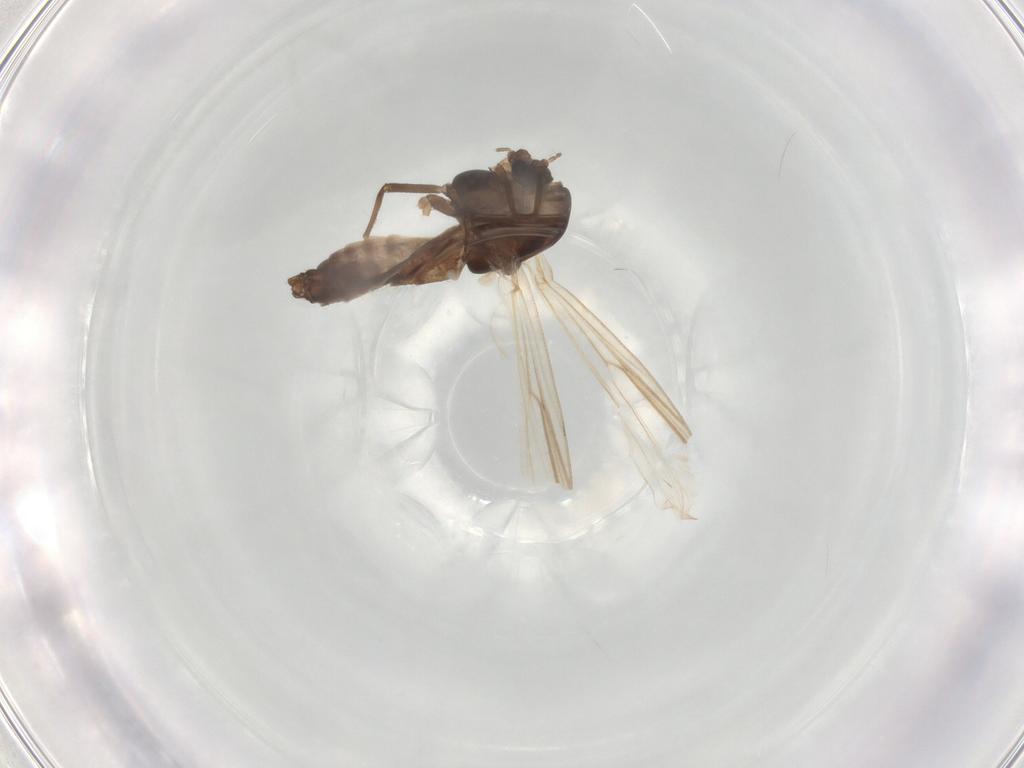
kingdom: Animalia
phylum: Arthropoda
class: Insecta
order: Diptera
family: Chironomidae
